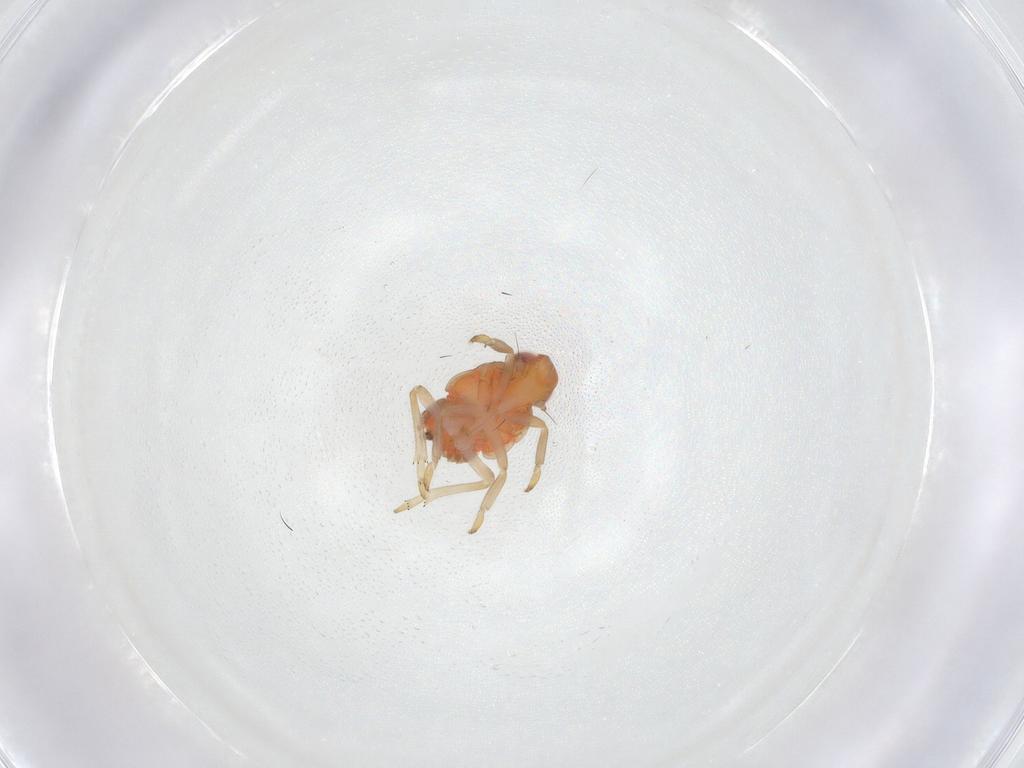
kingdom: Animalia
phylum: Arthropoda
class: Insecta
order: Hemiptera
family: Fulgoroidea_incertae_sedis
